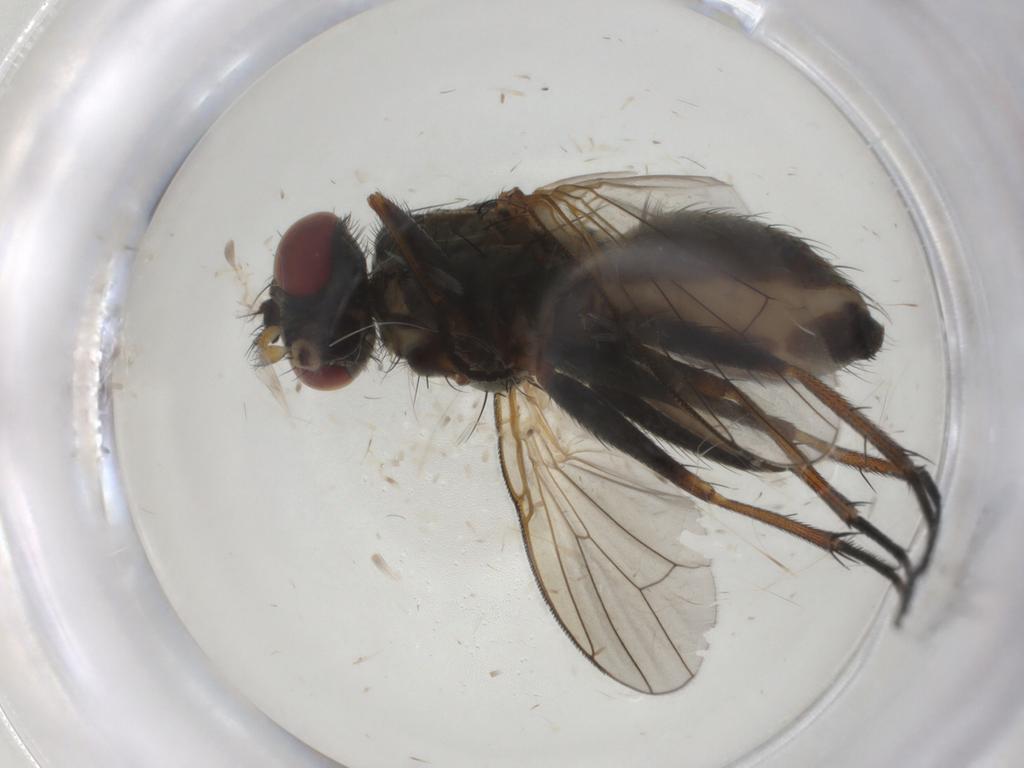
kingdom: Animalia
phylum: Arthropoda
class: Insecta
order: Diptera
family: Muscidae
